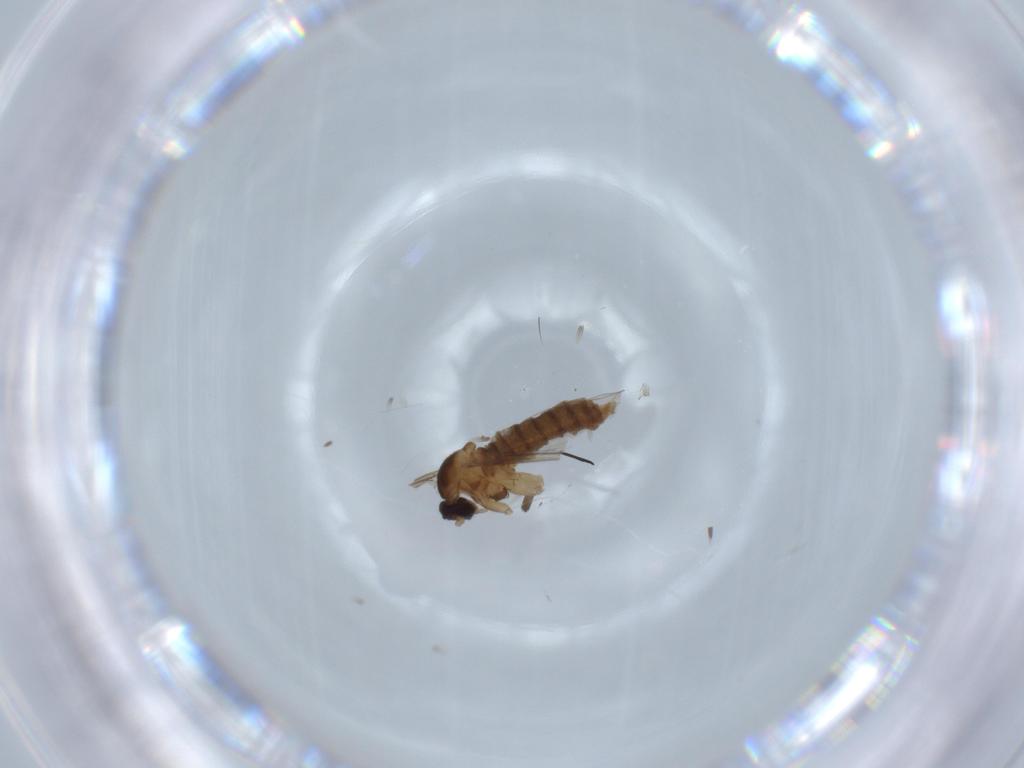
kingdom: Animalia
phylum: Arthropoda
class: Insecta
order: Diptera
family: Cecidomyiidae
